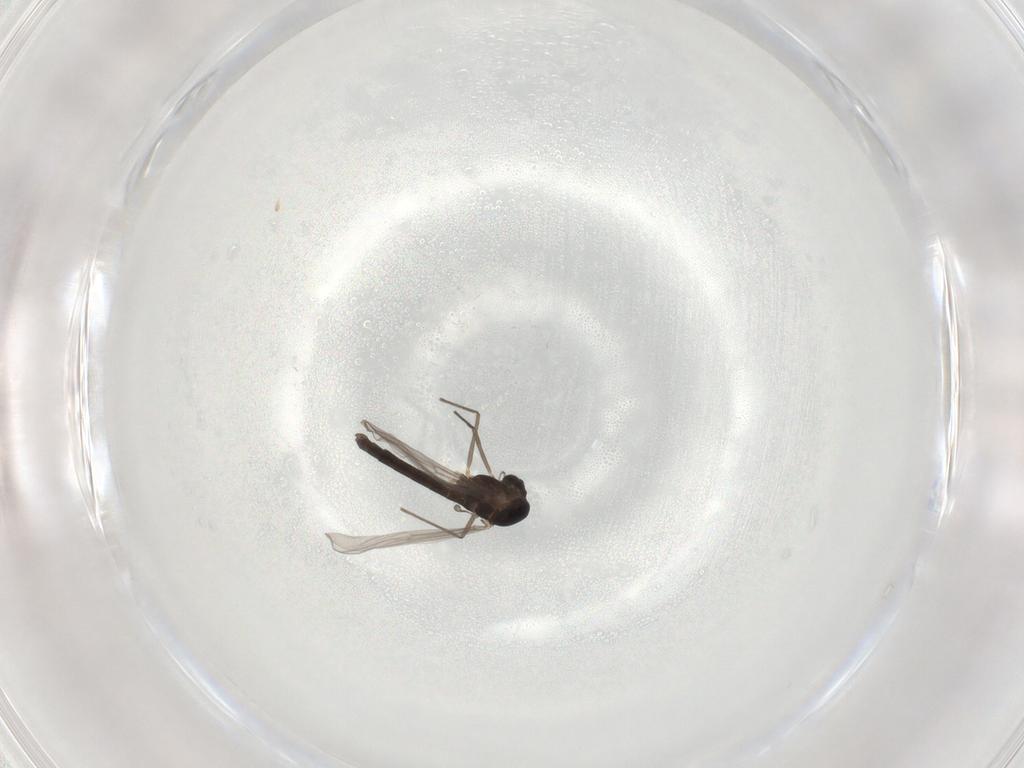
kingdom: Animalia
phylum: Arthropoda
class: Insecta
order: Diptera
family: Chironomidae
